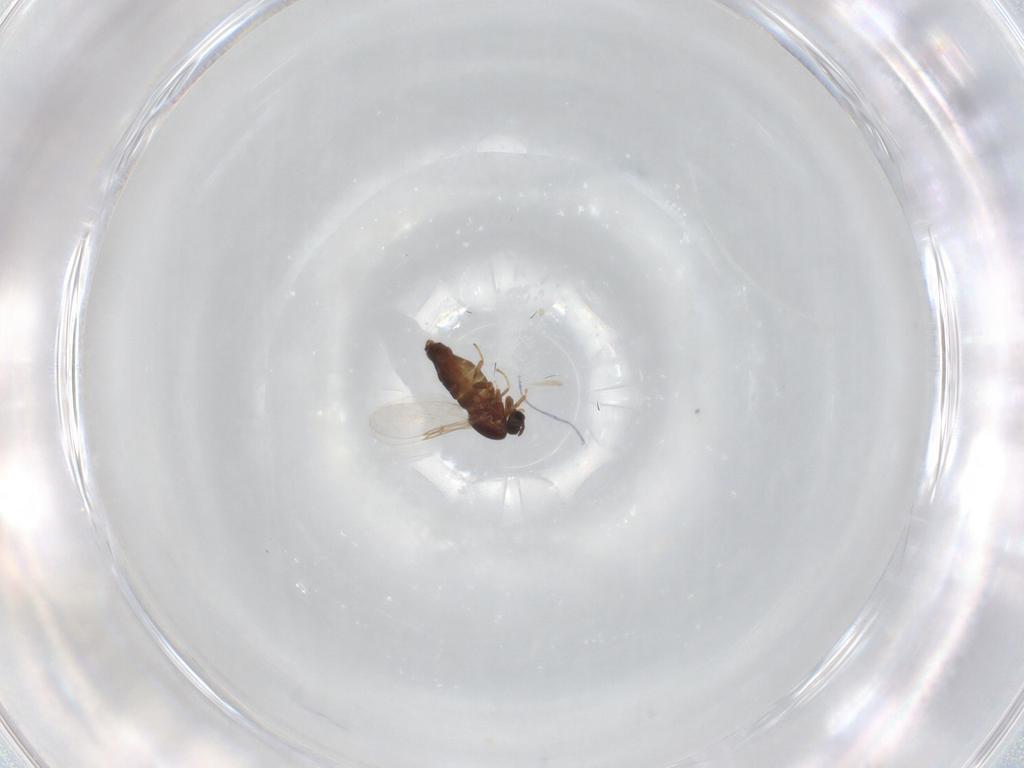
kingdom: Animalia
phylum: Arthropoda
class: Insecta
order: Diptera
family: Scatopsidae
